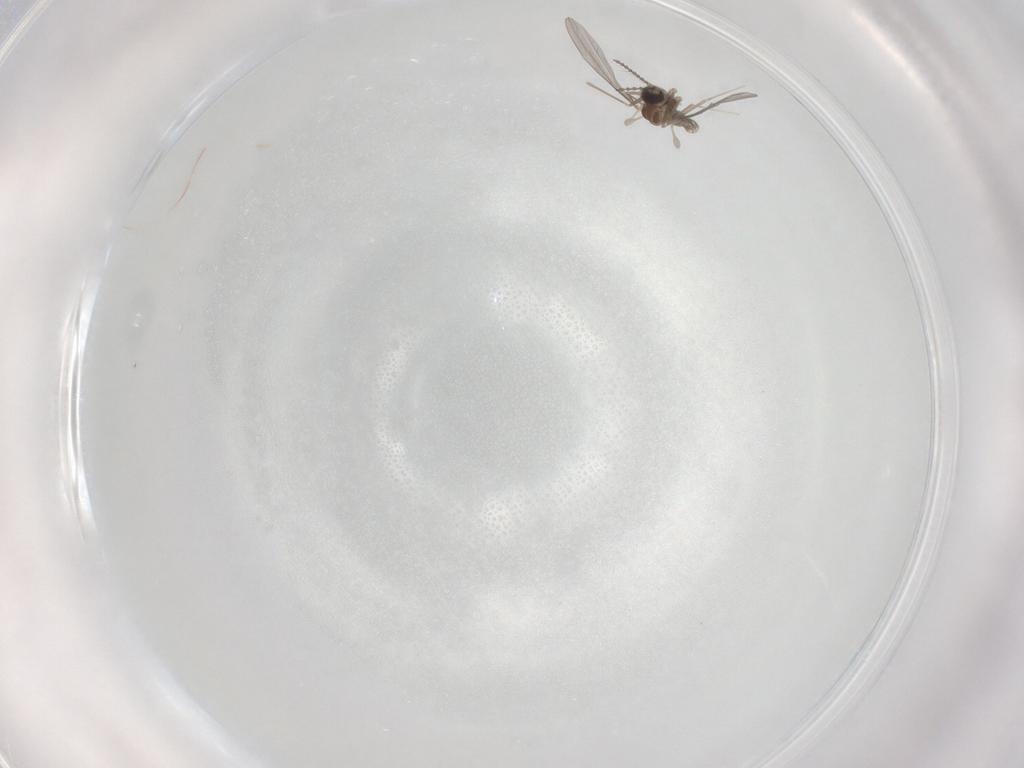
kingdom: Animalia
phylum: Arthropoda
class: Insecta
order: Diptera
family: Cecidomyiidae
